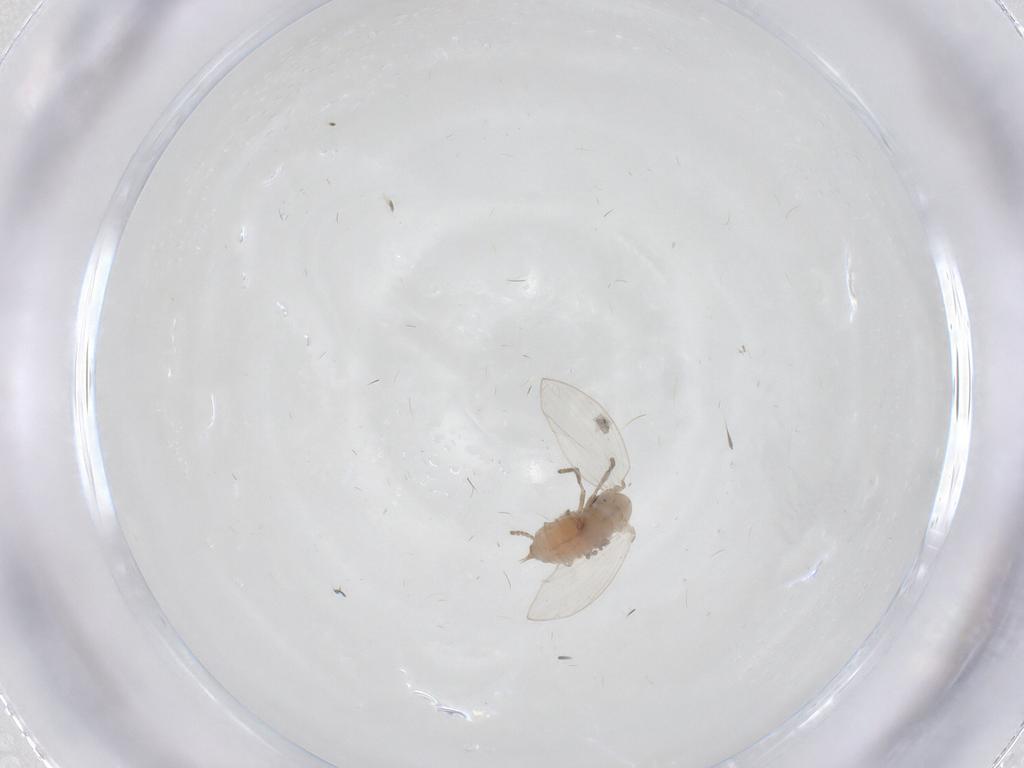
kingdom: Animalia
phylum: Arthropoda
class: Insecta
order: Diptera
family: Psychodidae
